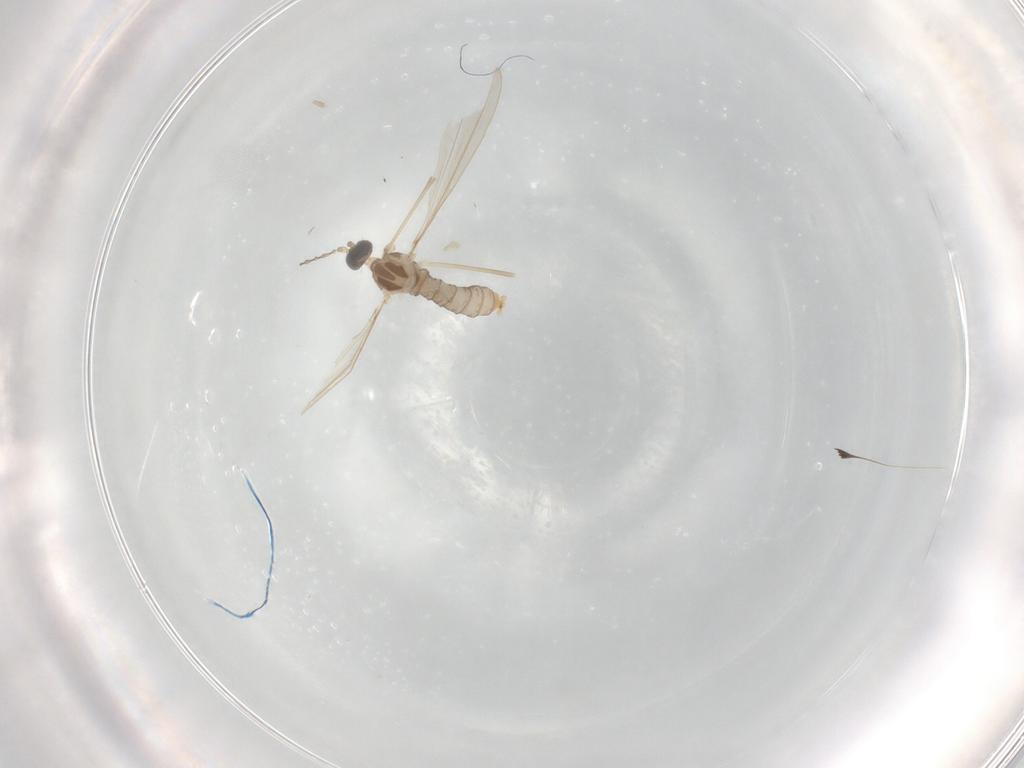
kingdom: Animalia
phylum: Arthropoda
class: Insecta
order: Diptera
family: Cecidomyiidae
